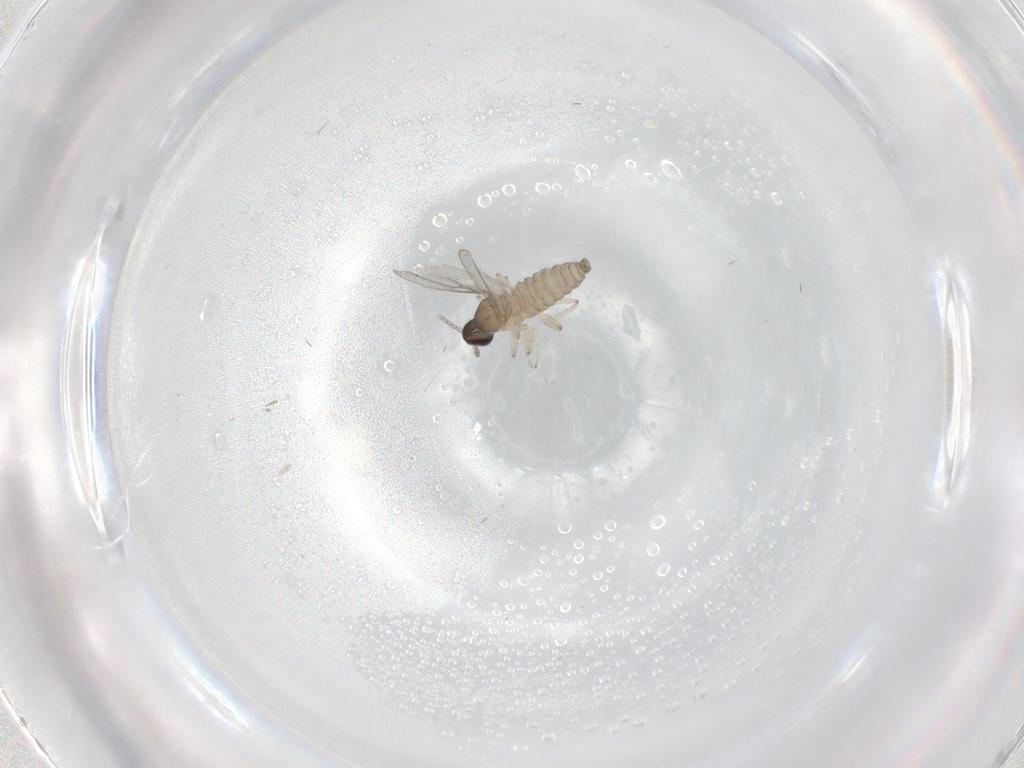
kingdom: Animalia
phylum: Arthropoda
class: Insecta
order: Diptera
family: Cecidomyiidae
